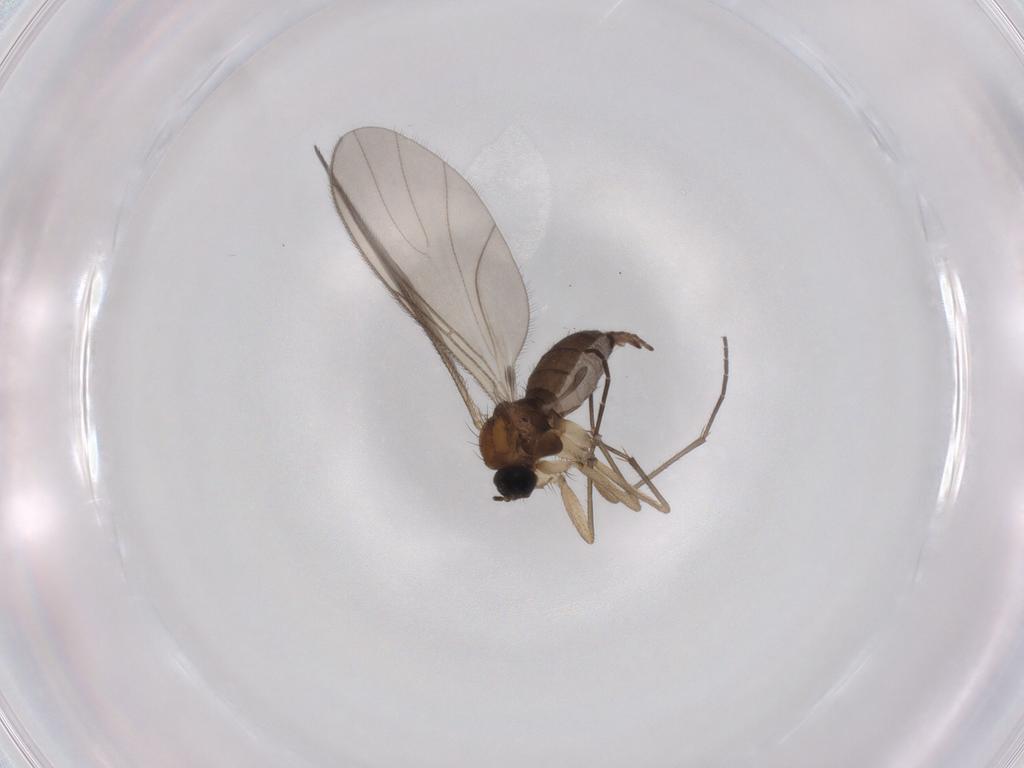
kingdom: Animalia
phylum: Arthropoda
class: Insecta
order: Diptera
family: Sciaridae
